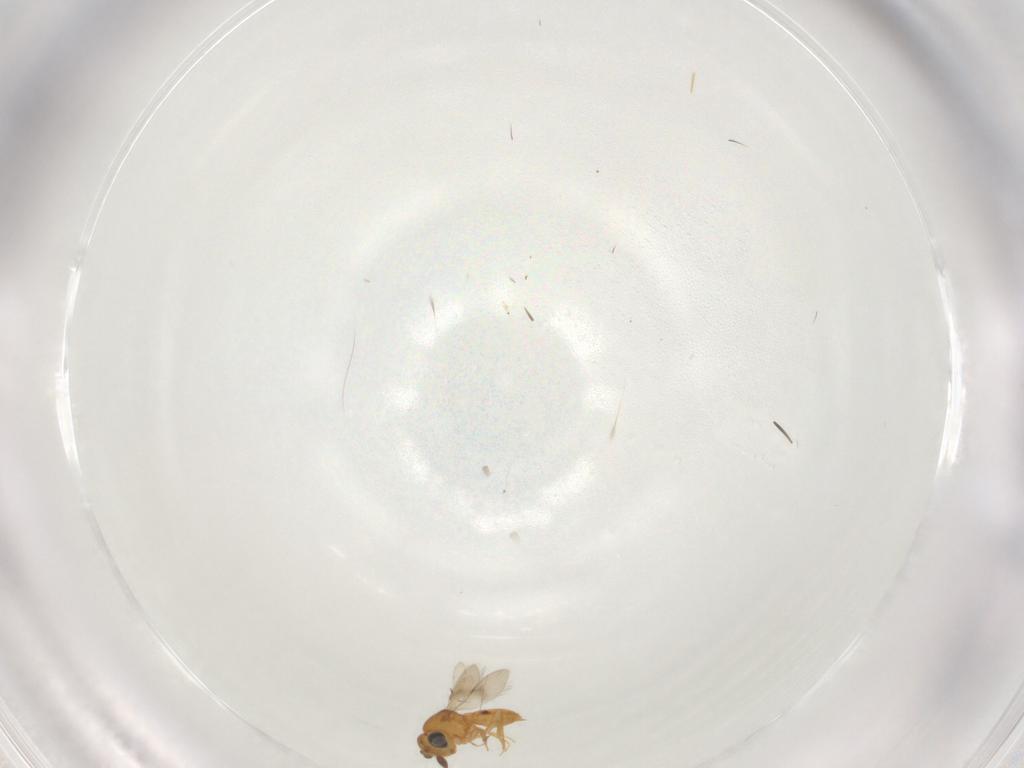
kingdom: Animalia
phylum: Arthropoda
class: Insecta
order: Hymenoptera
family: Scelionidae
